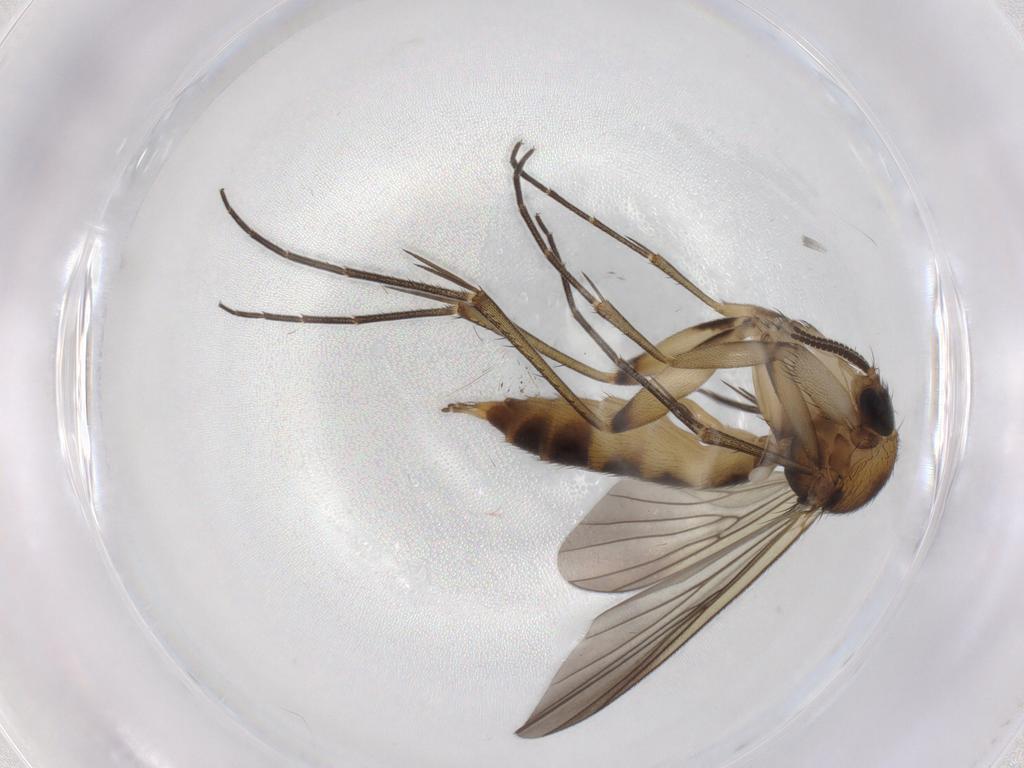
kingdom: Animalia
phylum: Arthropoda
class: Insecta
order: Diptera
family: Mycetophilidae
